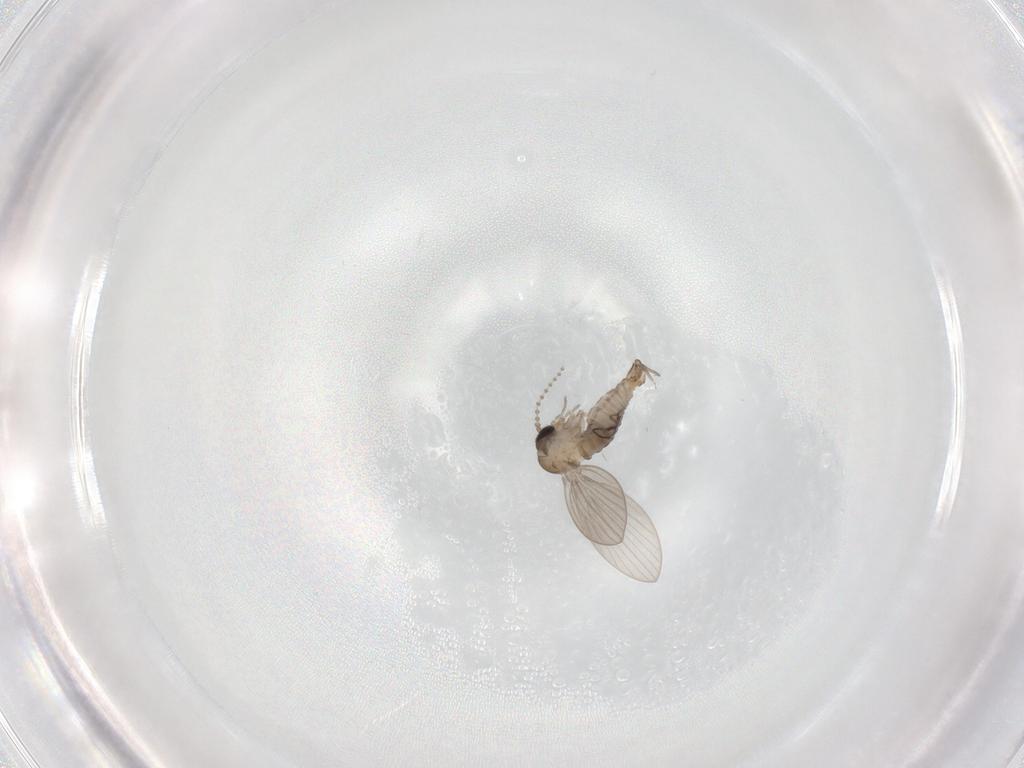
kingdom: Animalia
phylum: Arthropoda
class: Insecta
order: Diptera
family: Psychodidae
